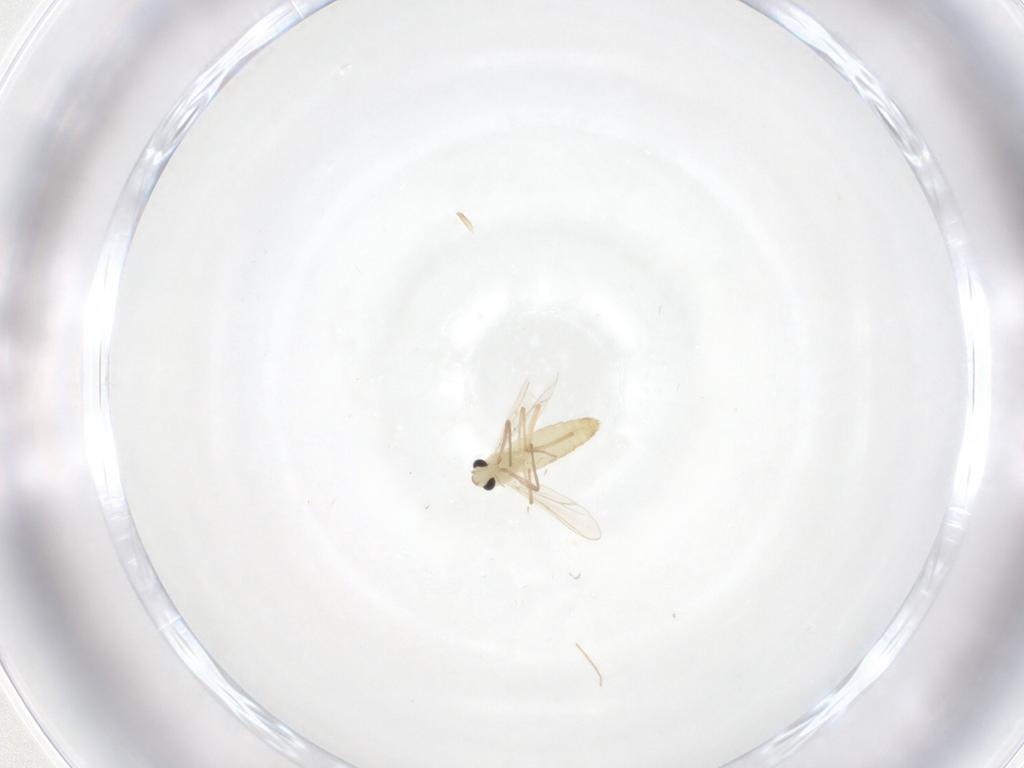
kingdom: Animalia
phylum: Arthropoda
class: Insecta
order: Diptera
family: Chironomidae
